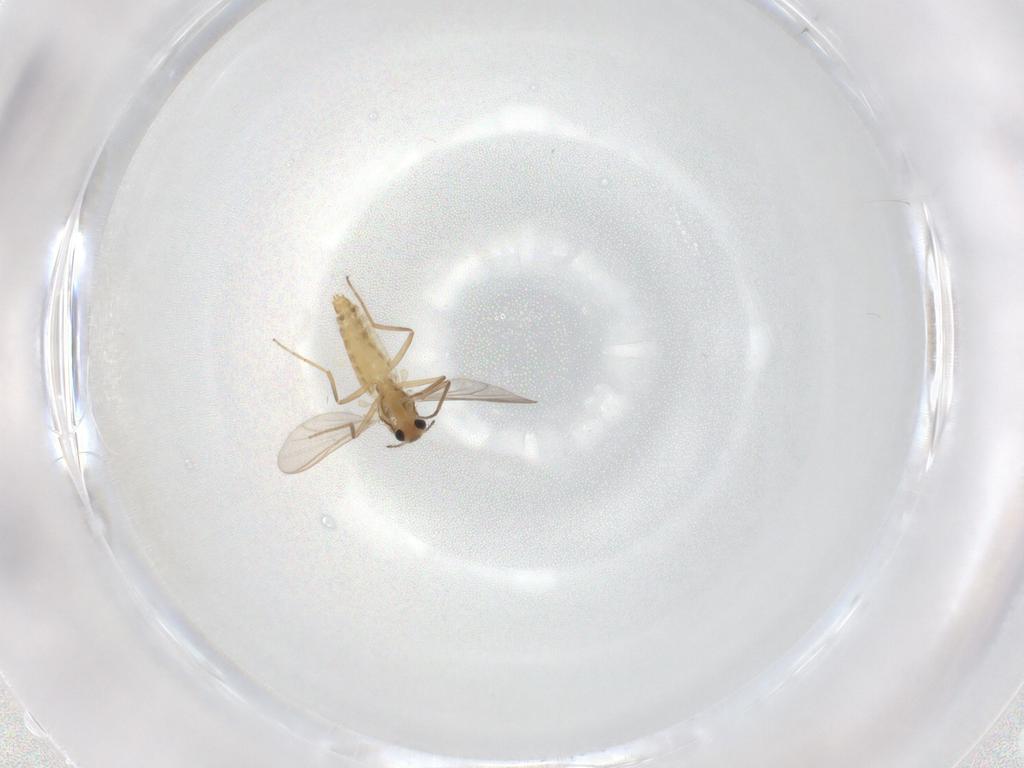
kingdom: Animalia
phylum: Arthropoda
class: Insecta
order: Diptera
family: Chironomidae
